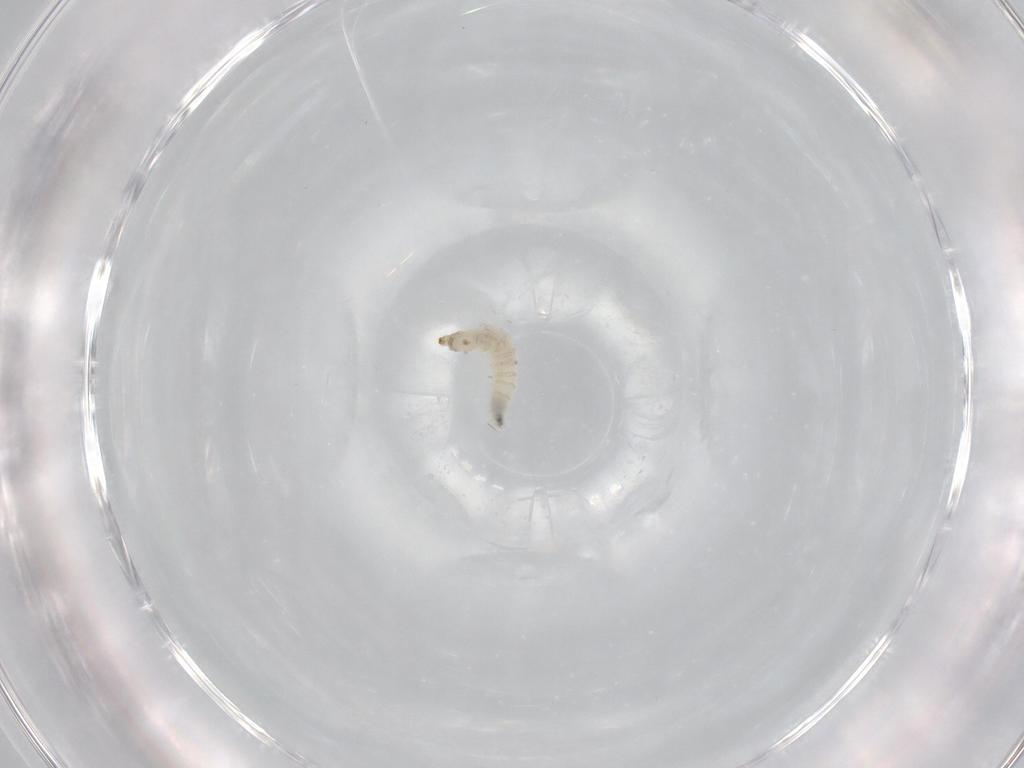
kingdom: Animalia
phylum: Arthropoda
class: Insecta
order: Diptera
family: Drosophilidae
